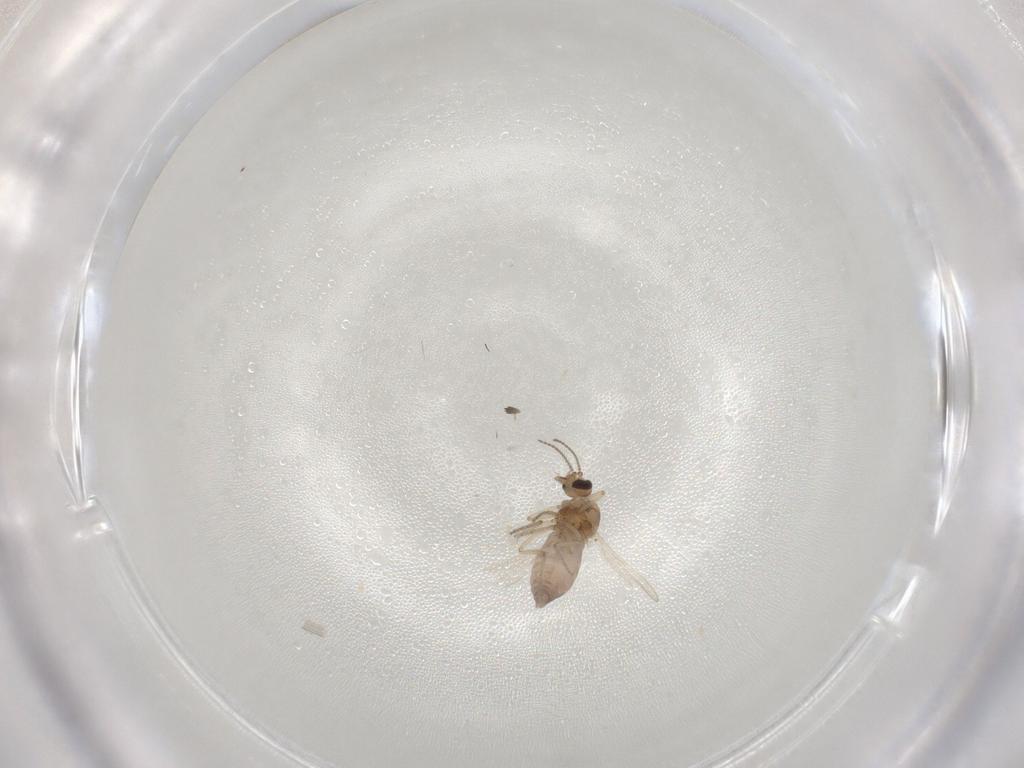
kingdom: Animalia
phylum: Arthropoda
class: Insecta
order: Diptera
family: Ceratopogonidae
